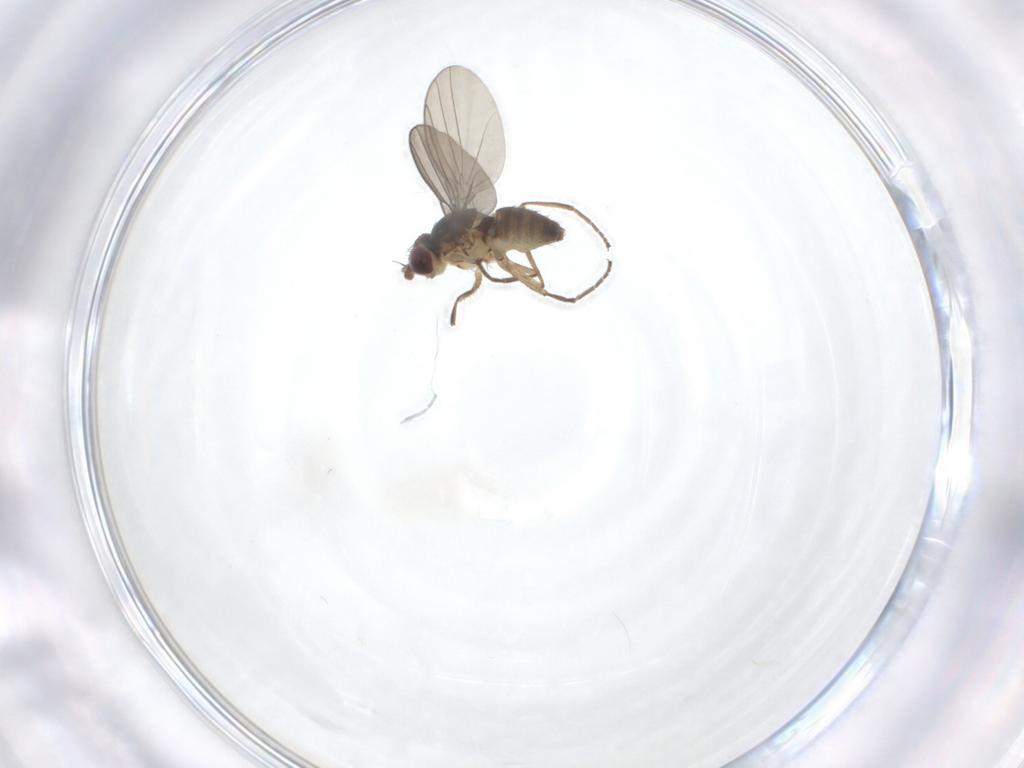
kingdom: Animalia
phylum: Arthropoda
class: Insecta
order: Diptera
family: Agromyzidae
